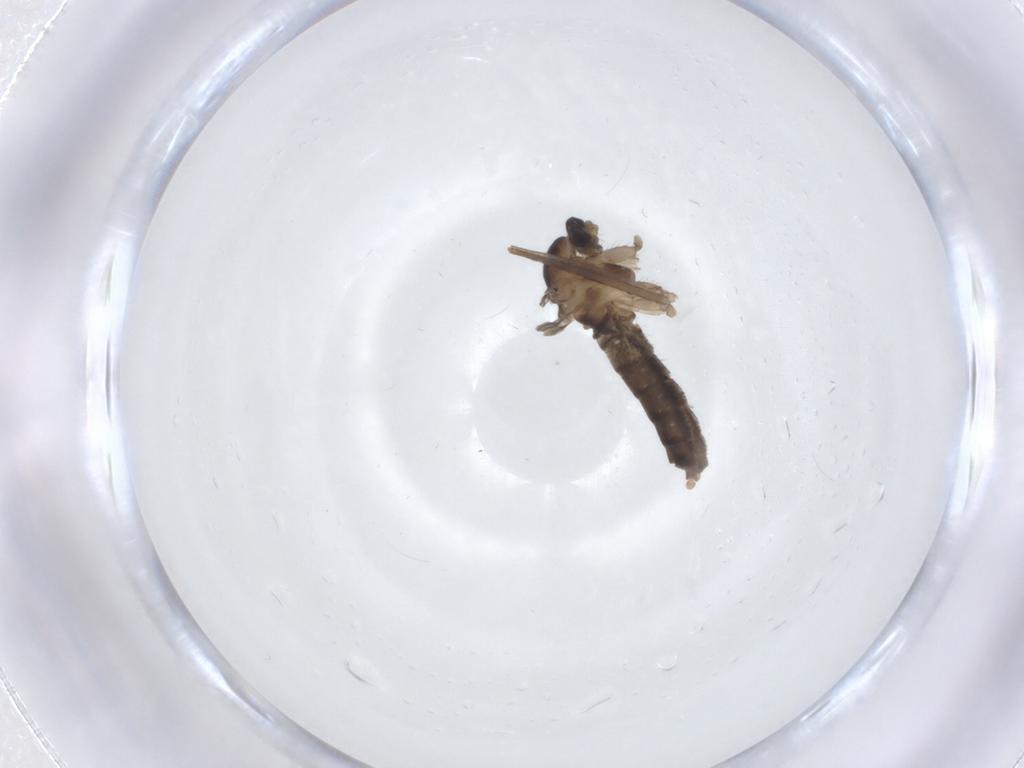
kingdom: Animalia
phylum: Arthropoda
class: Insecta
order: Diptera
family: Cecidomyiidae
